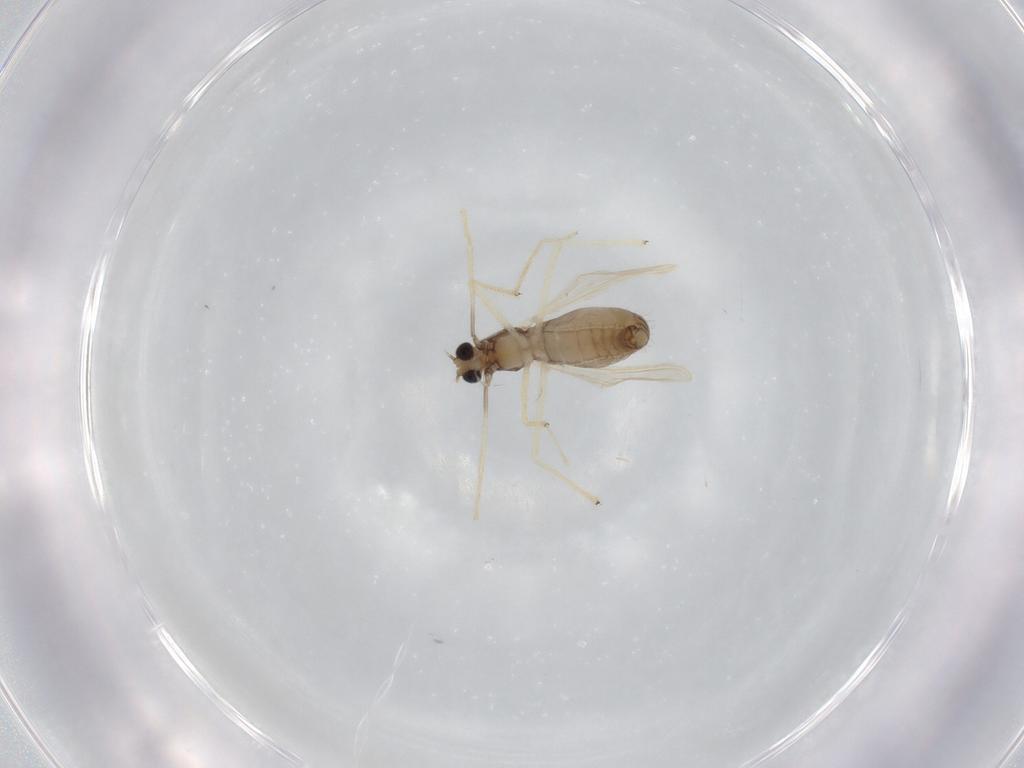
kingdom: Animalia
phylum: Arthropoda
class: Insecta
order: Diptera
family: Chironomidae
